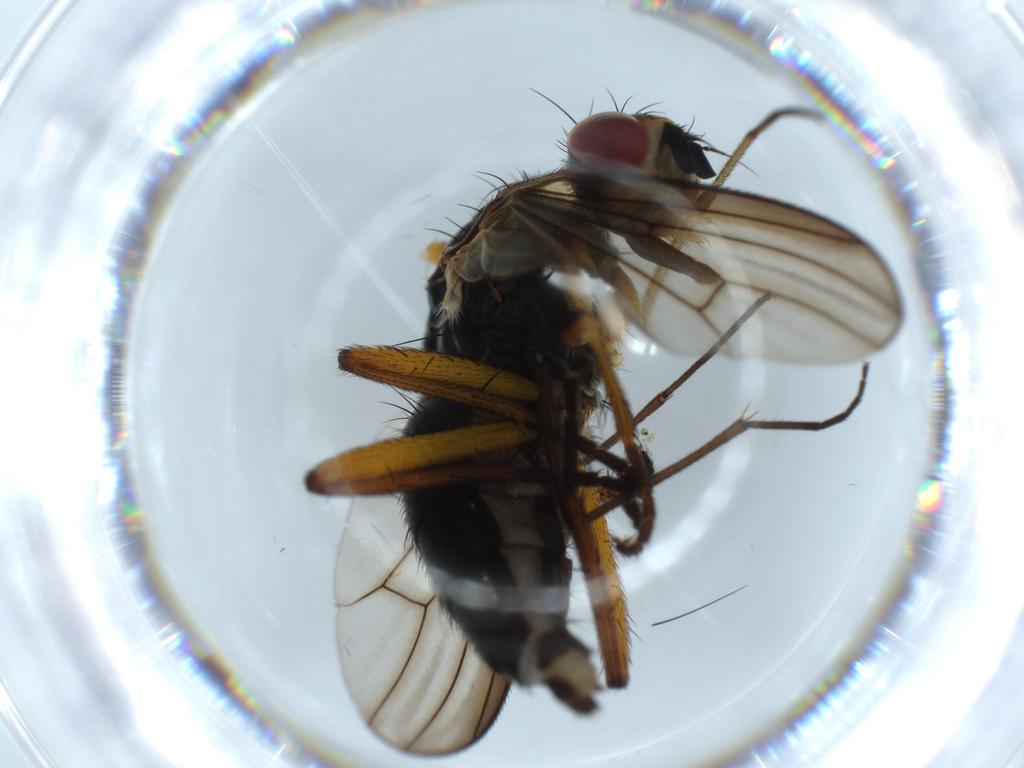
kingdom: Animalia
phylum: Arthropoda
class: Insecta
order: Diptera
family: Scathophagidae
